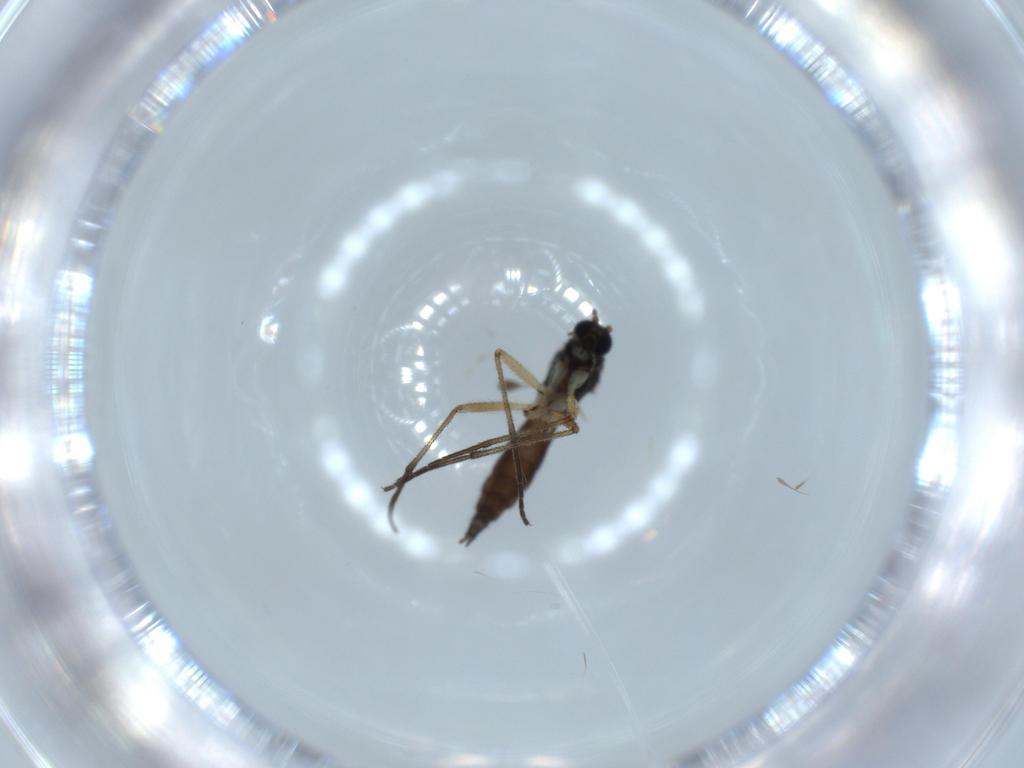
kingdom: Animalia
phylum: Arthropoda
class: Insecta
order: Diptera
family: Sciaridae
